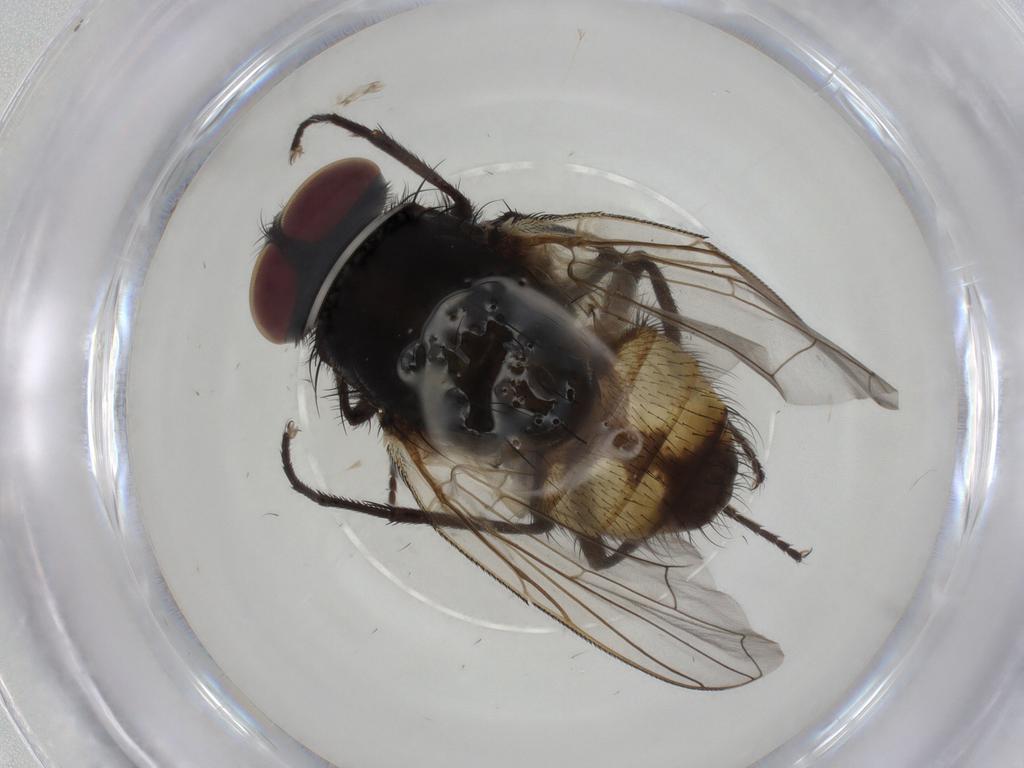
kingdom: Animalia
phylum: Arthropoda
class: Insecta
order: Diptera
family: Muscidae
